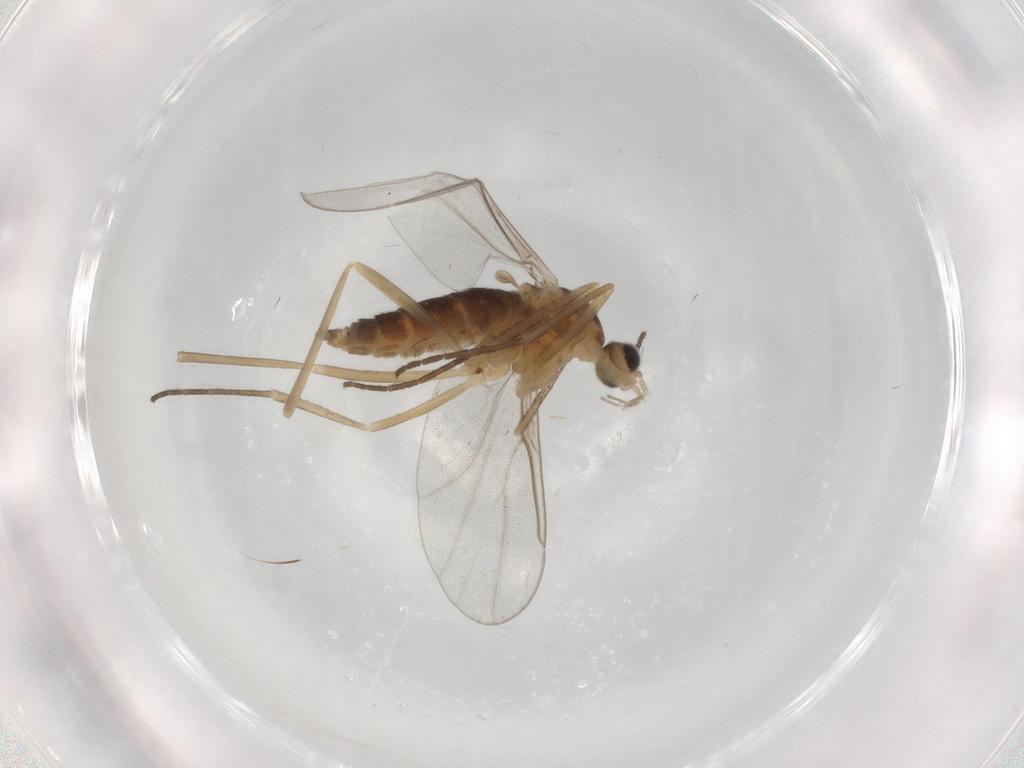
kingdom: Animalia
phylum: Arthropoda
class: Insecta
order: Diptera
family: Cecidomyiidae
